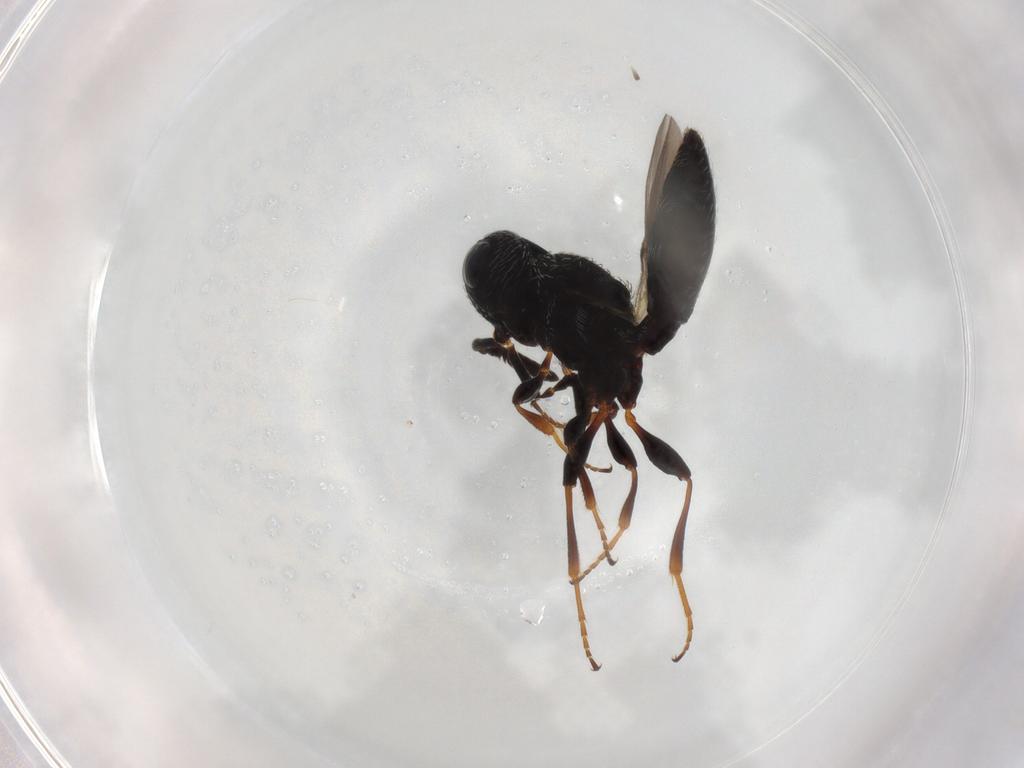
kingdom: Animalia
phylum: Arthropoda
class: Insecta
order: Hymenoptera
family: Scelionidae
